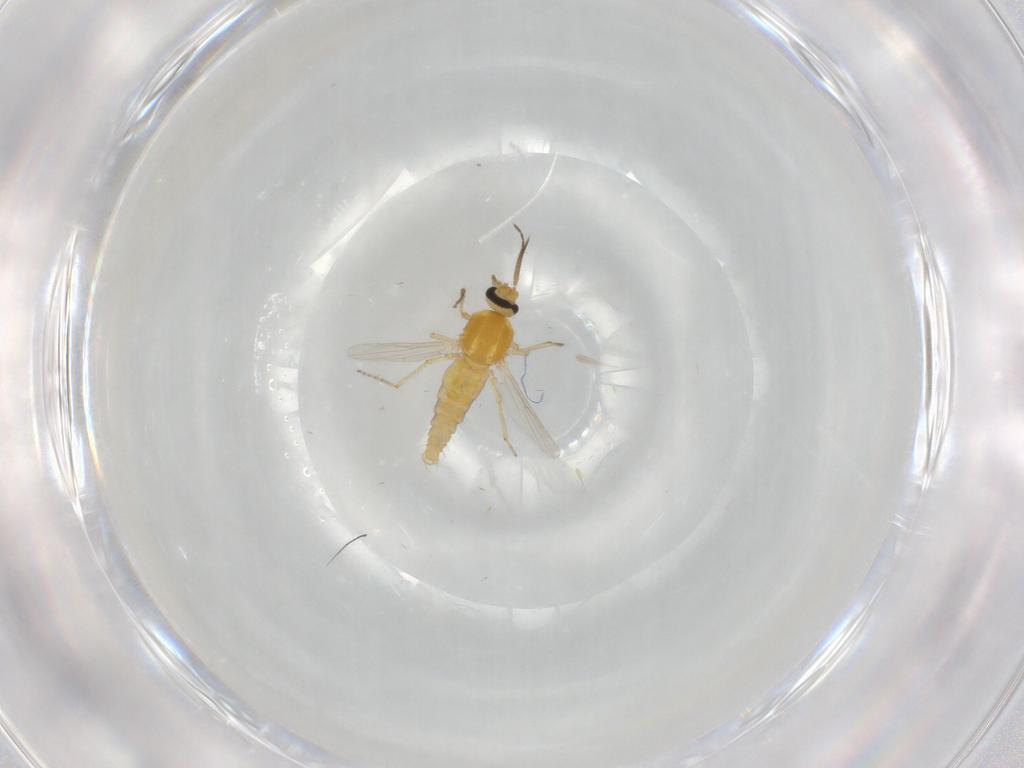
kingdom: Animalia
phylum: Arthropoda
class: Insecta
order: Diptera
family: Ceratopogonidae
